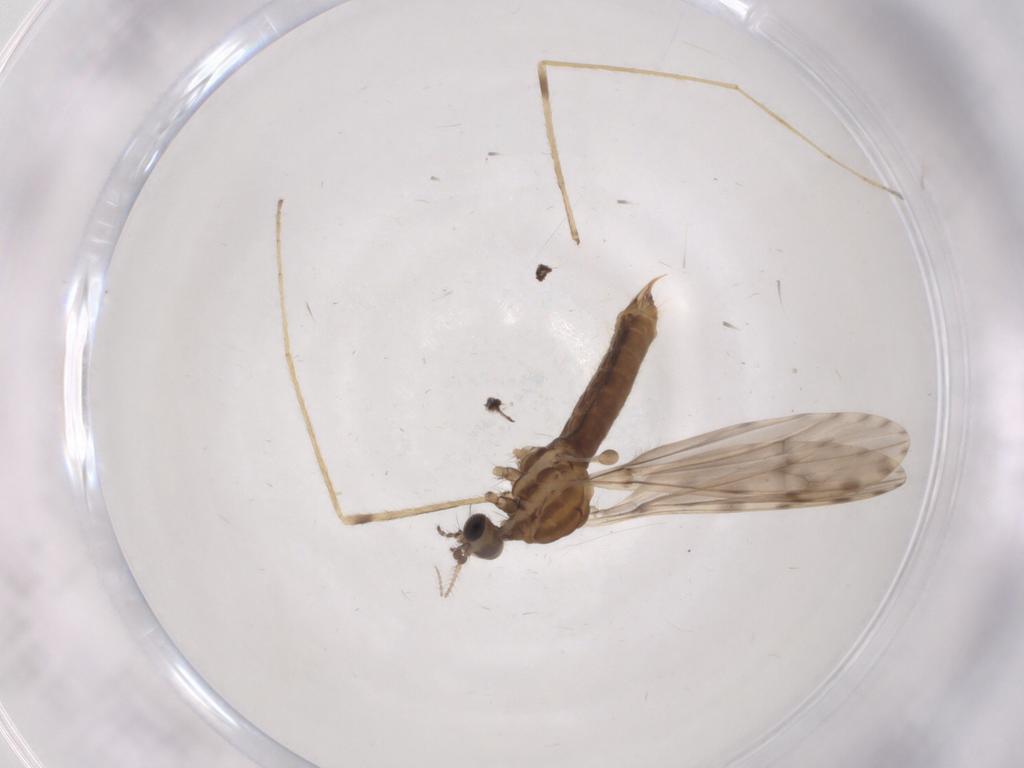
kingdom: Animalia
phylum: Arthropoda
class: Insecta
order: Diptera
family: Limoniidae
